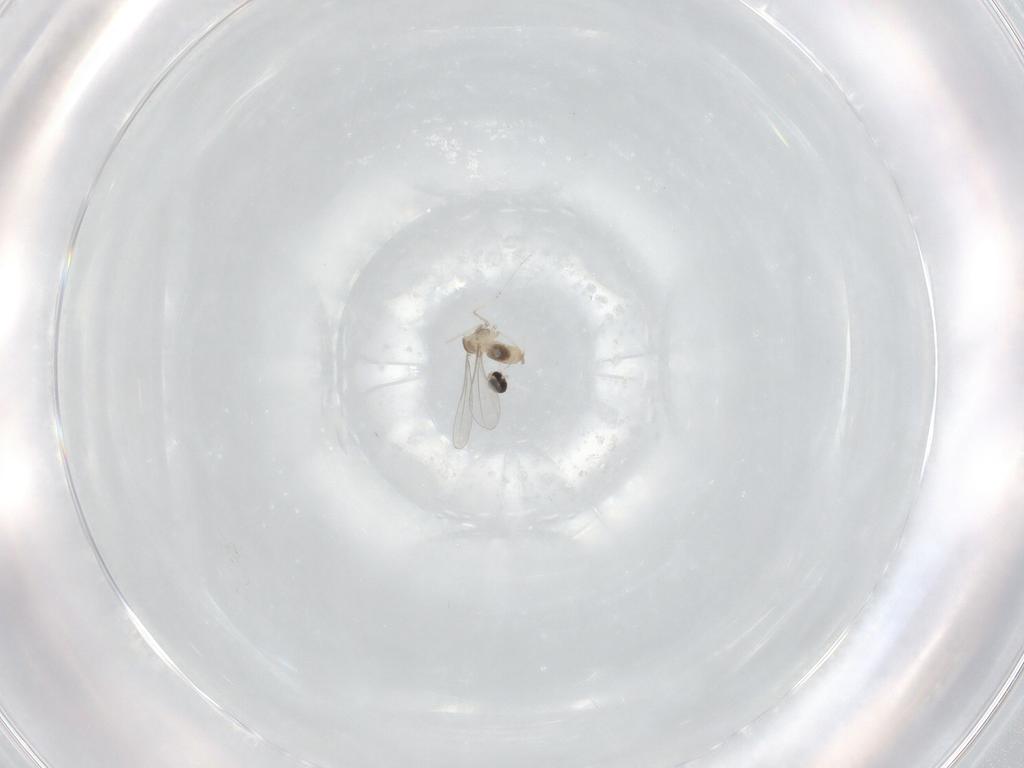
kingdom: Animalia
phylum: Arthropoda
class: Insecta
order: Diptera
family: Cecidomyiidae
